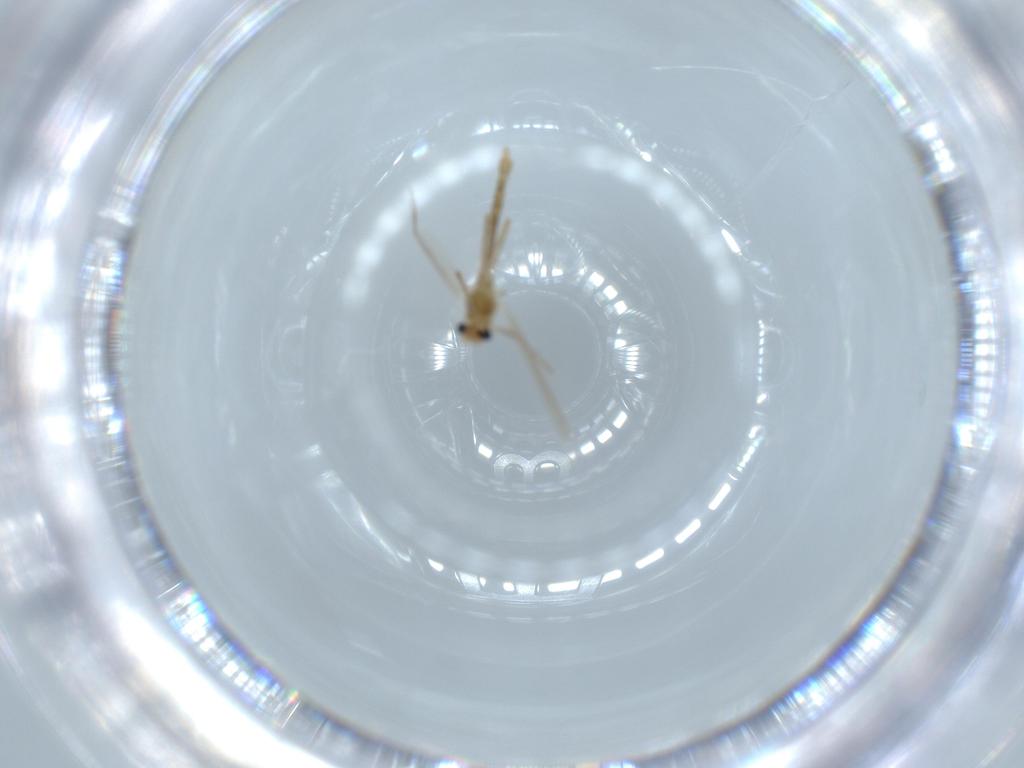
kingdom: Animalia
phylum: Arthropoda
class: Insecta
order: Diptera
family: Chironomidae
